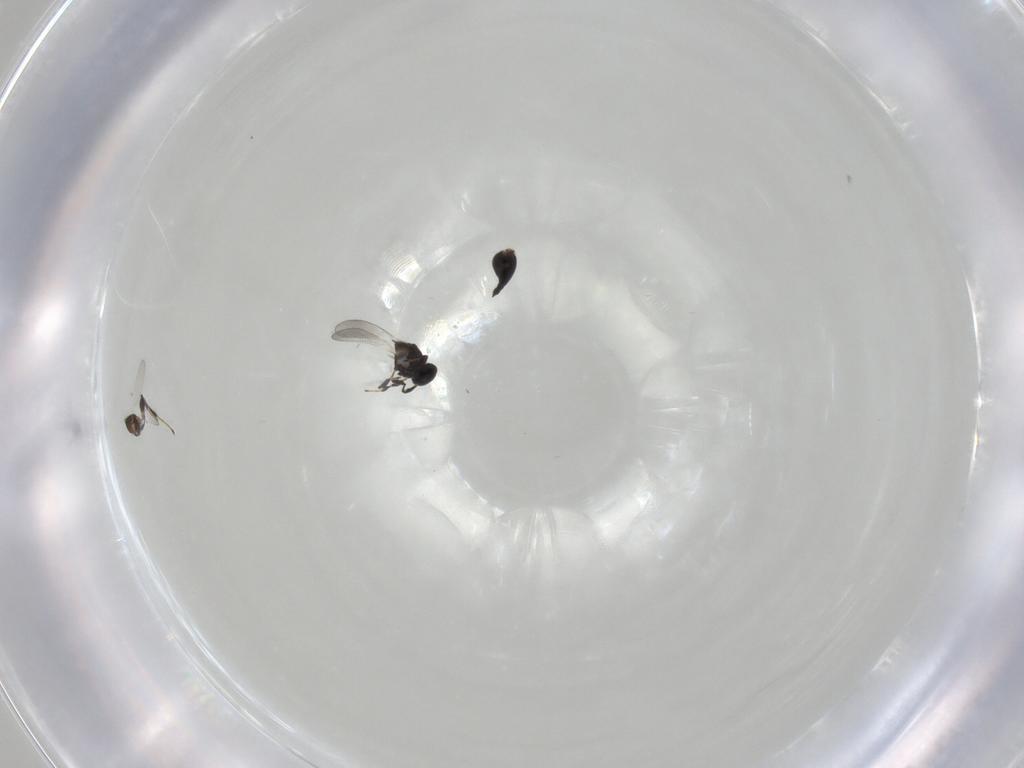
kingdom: Animalia
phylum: Arthropoda
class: Insecta
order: Hymenoptera
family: Platygastridae
